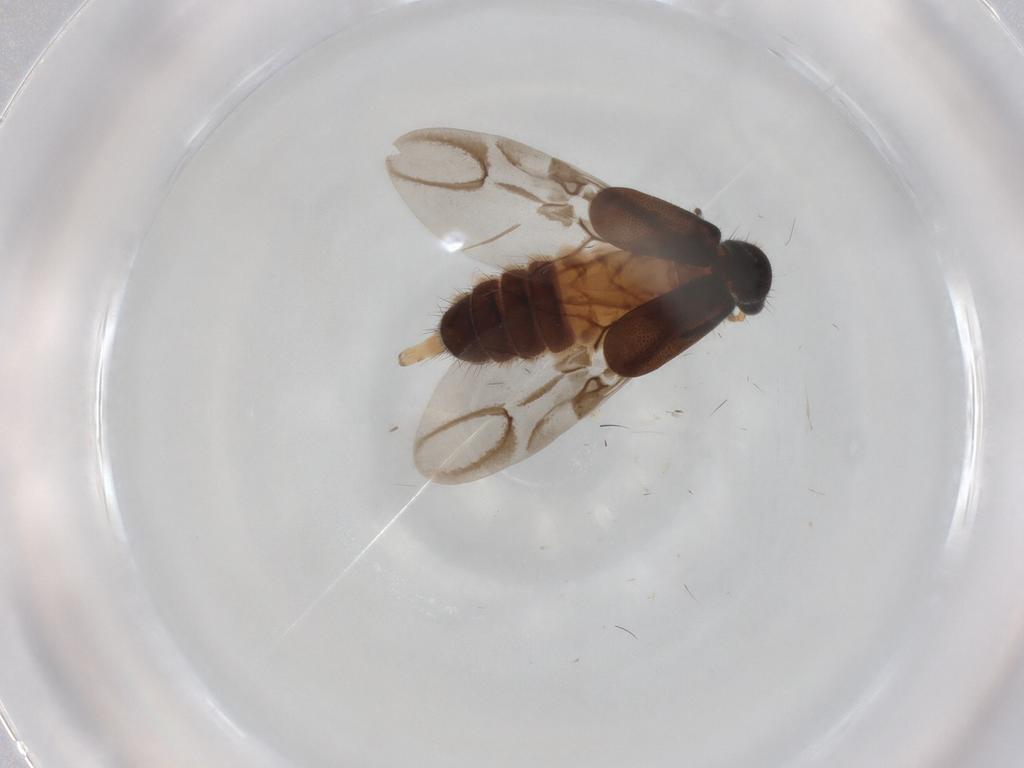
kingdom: Animalia
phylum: Arthropoda
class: Insecta
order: Coleoptera
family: Melyridae
